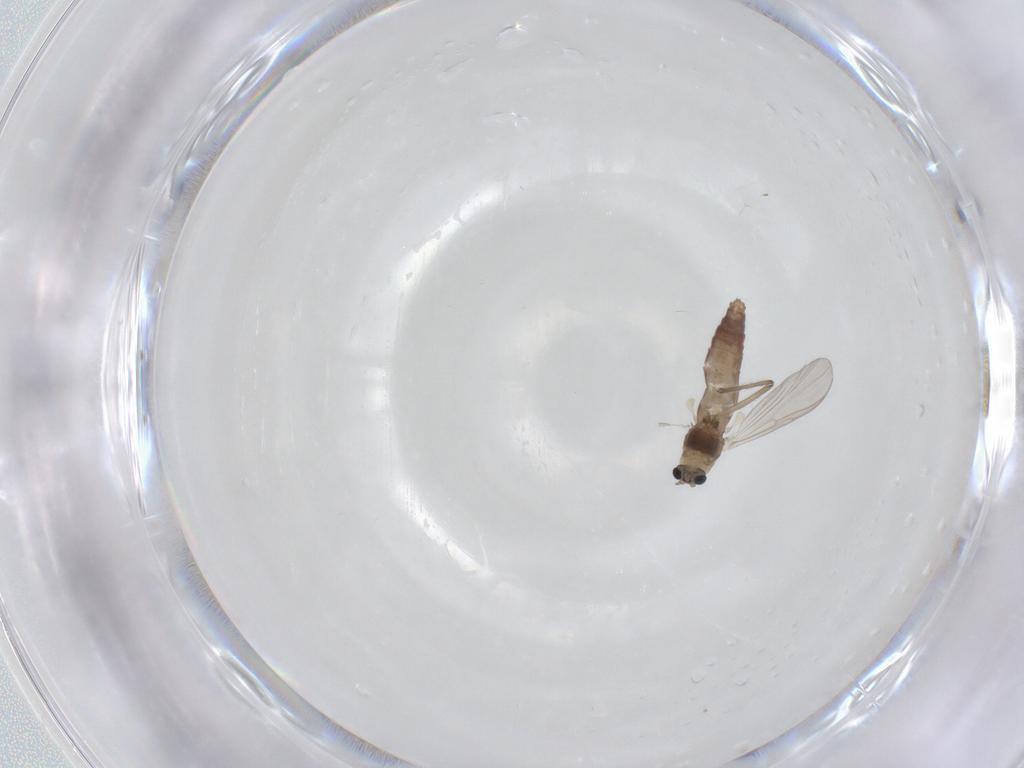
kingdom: Animalia
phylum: Arthropoda
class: Insecta
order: Diptera
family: Chironomidae
